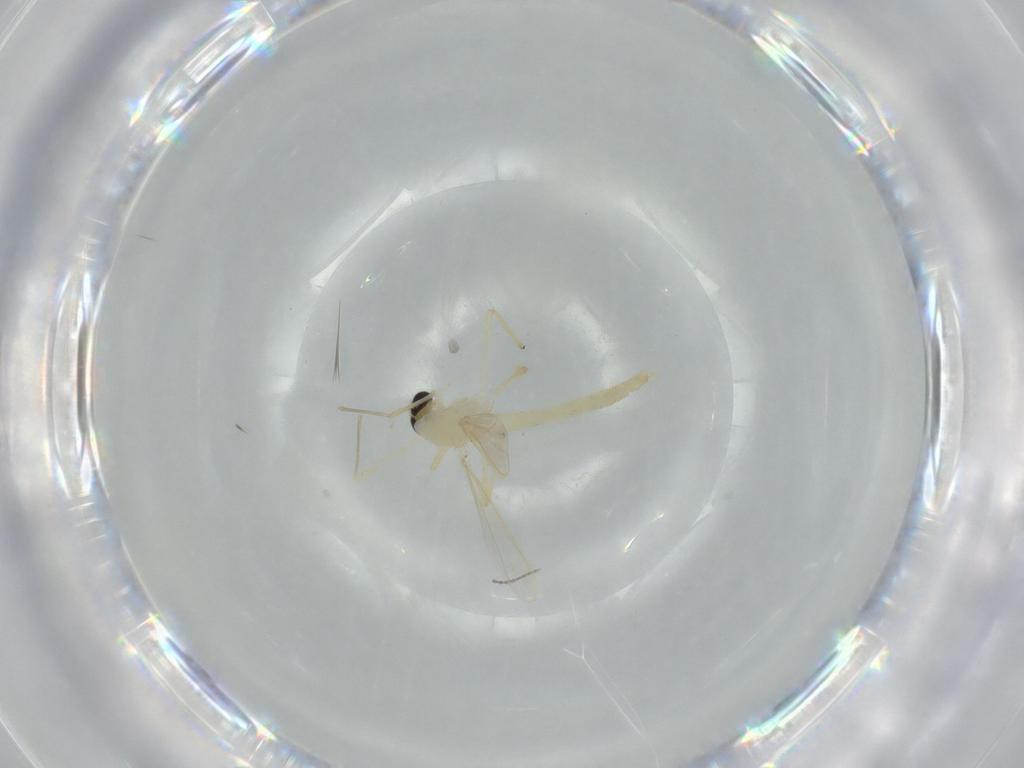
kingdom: Animalia
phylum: Arthropoda
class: Insecta
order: Diptera
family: Chironomidae
